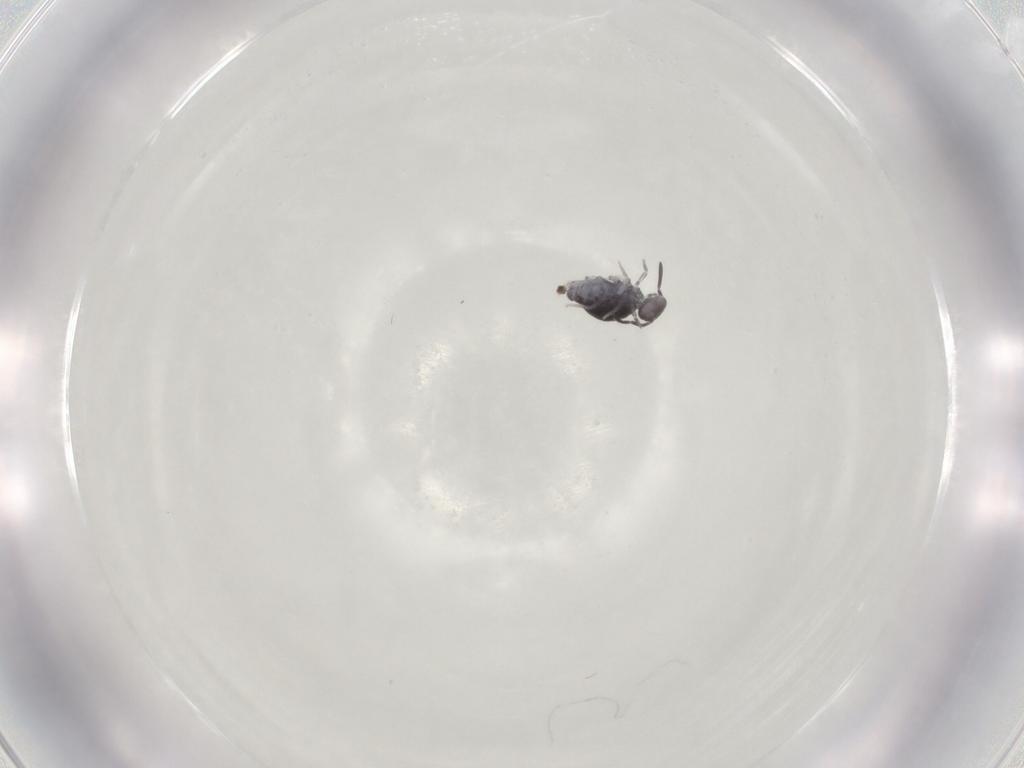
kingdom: Animalia
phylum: Arthropoda
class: Collembola
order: Symphypleona
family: Katiannidae
